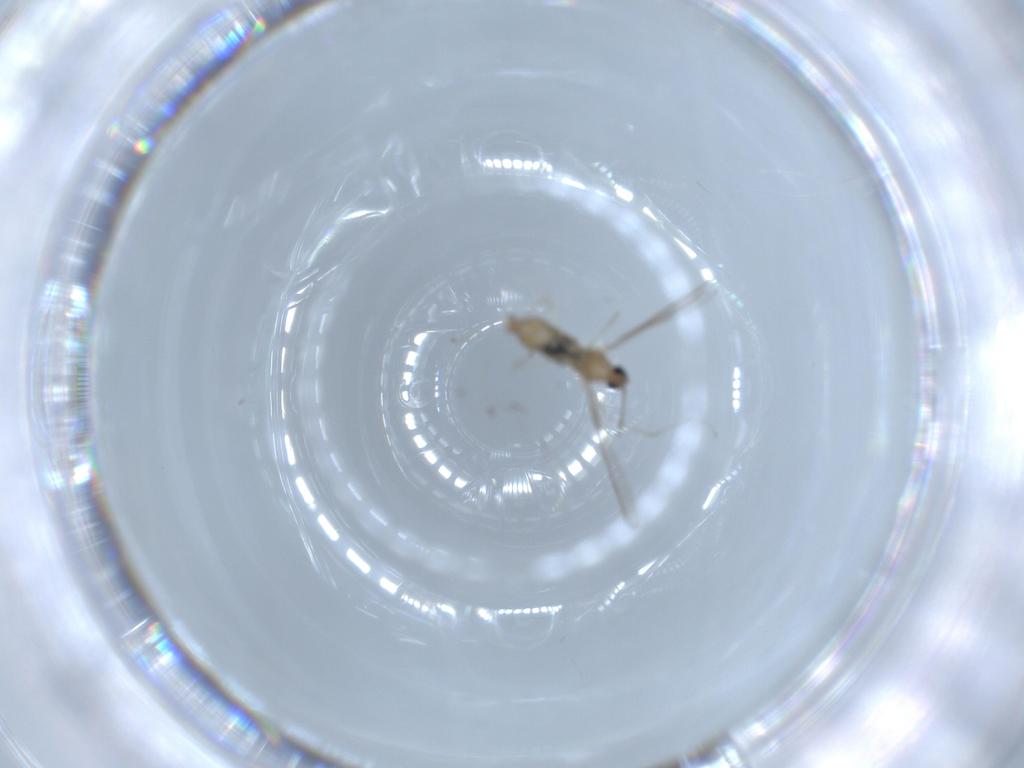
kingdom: Animalia
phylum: Arthropoda
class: Insecta
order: Diptera
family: Cecidomyiidae
